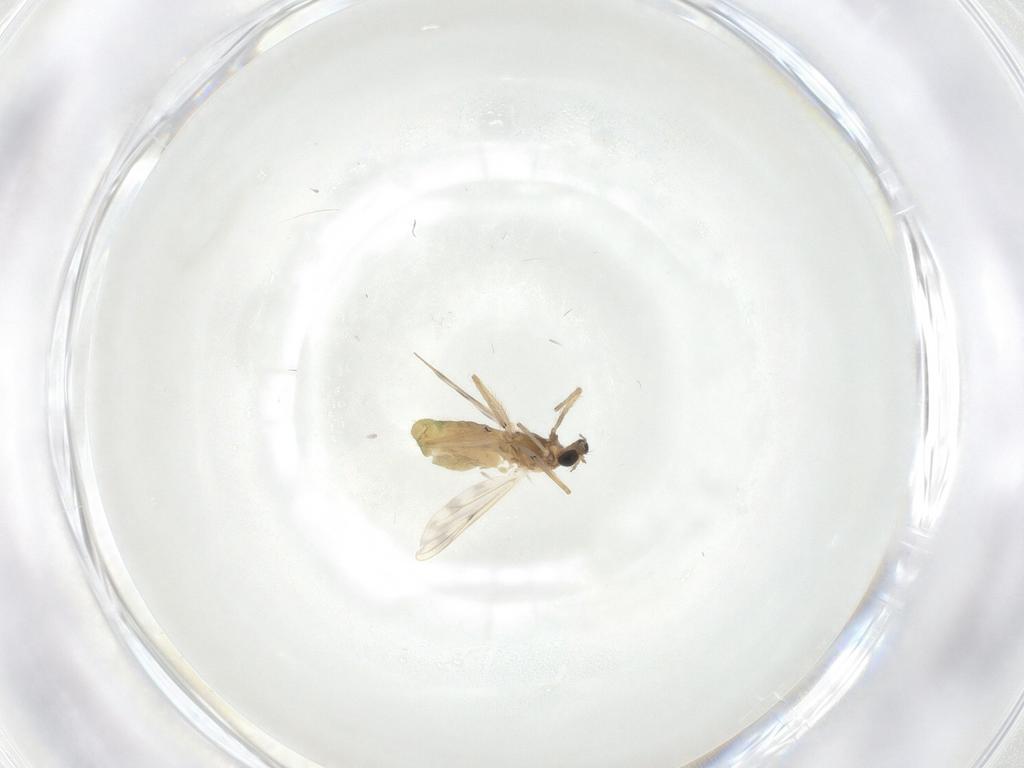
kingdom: Animalia
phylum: Arthropoda
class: Insecta
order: Diptera
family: Chironomidae
